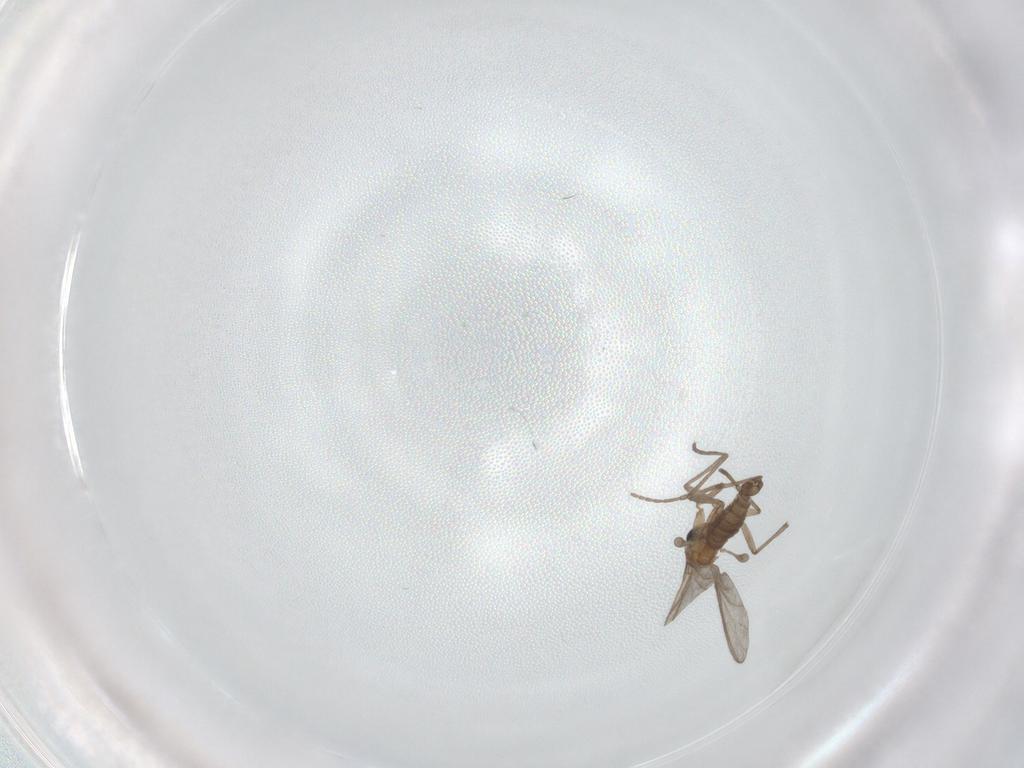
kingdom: Animalia
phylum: Arthropoda
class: Insecta
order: Diptera
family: Sciaridae
